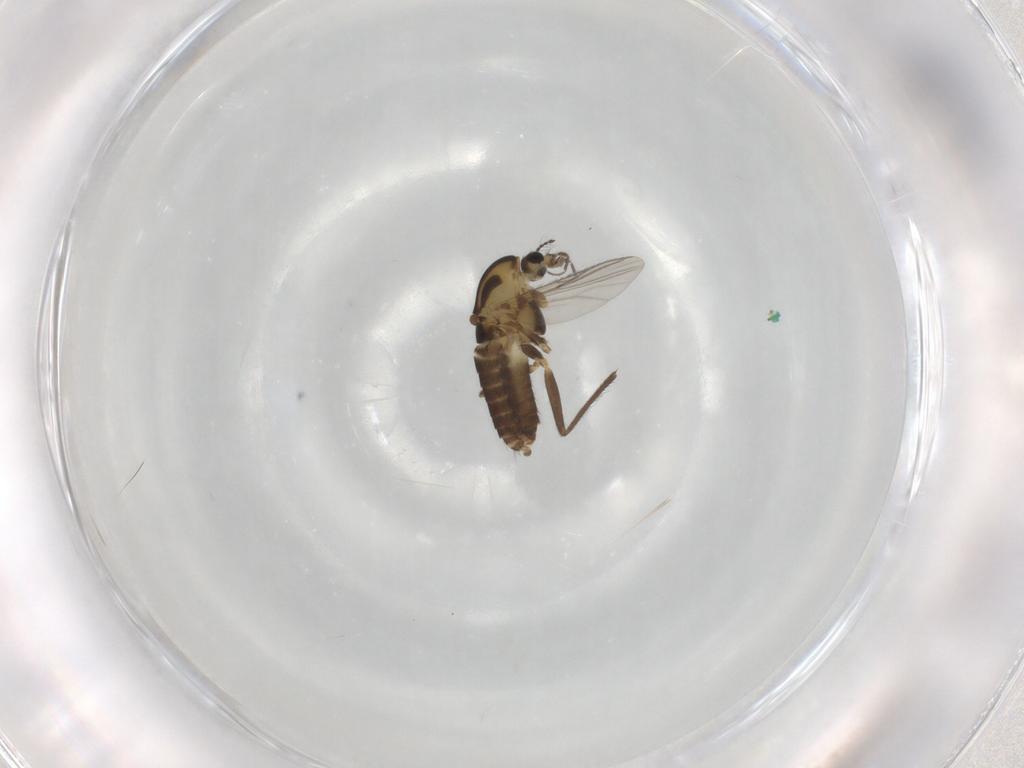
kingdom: Animalia
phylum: Arthropoda
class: Insecta
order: Diptera
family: Chironomidae
